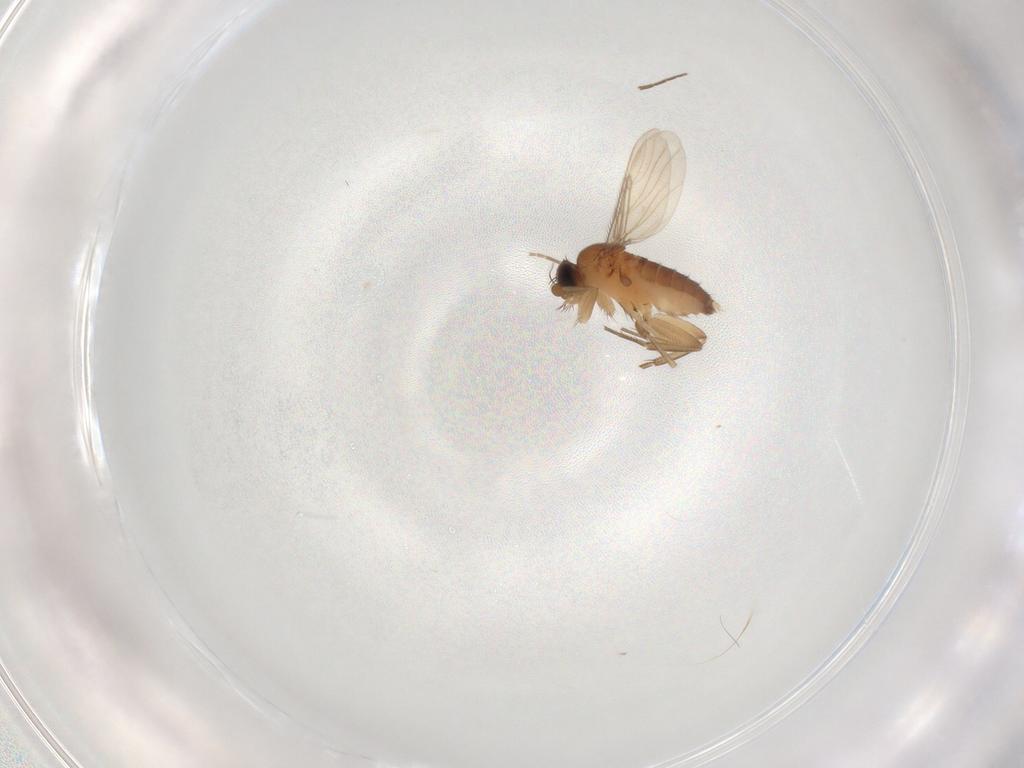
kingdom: Animalia
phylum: Arthropoda
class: Insecta
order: Diptera
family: Phoridae
